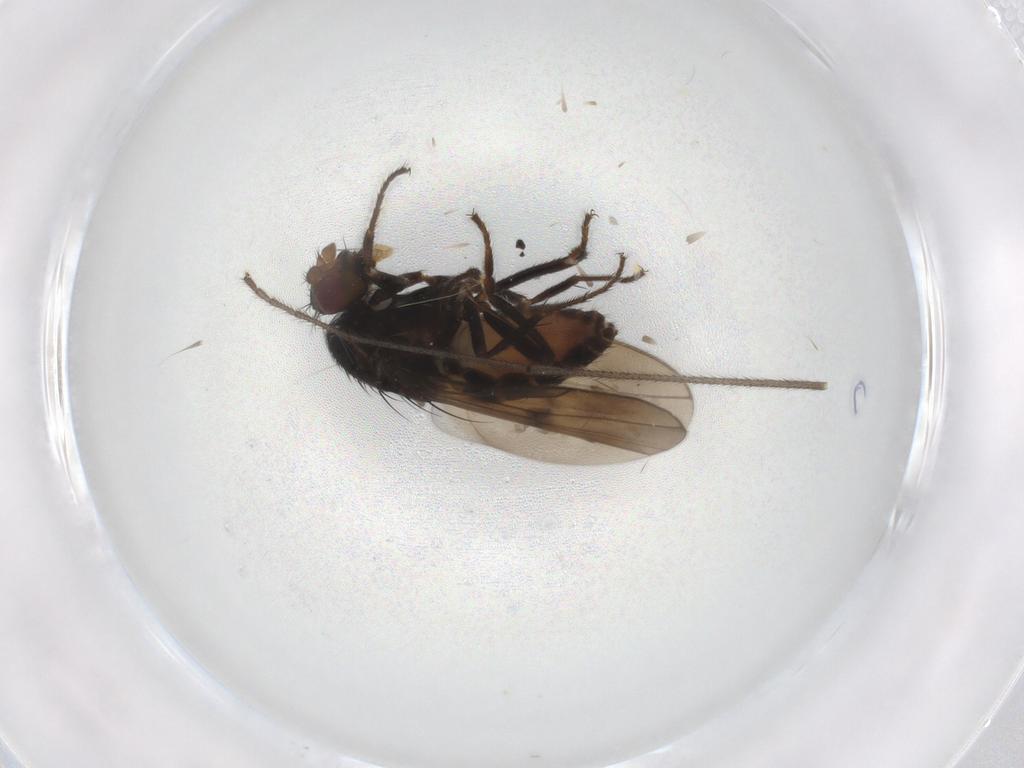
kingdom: Animalia
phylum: Arthropoda
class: Insecta
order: Diptera
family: Sphaeroceridae
